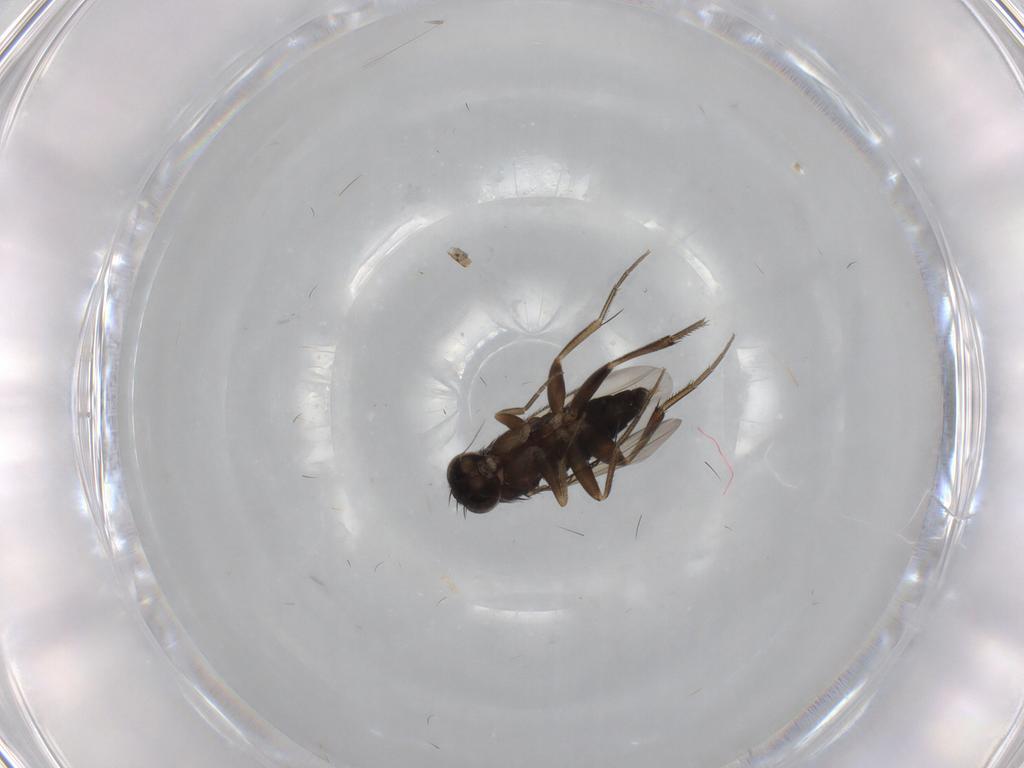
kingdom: Animalia
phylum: Arthropoda
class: Insecta
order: Diptera
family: Phoridae
